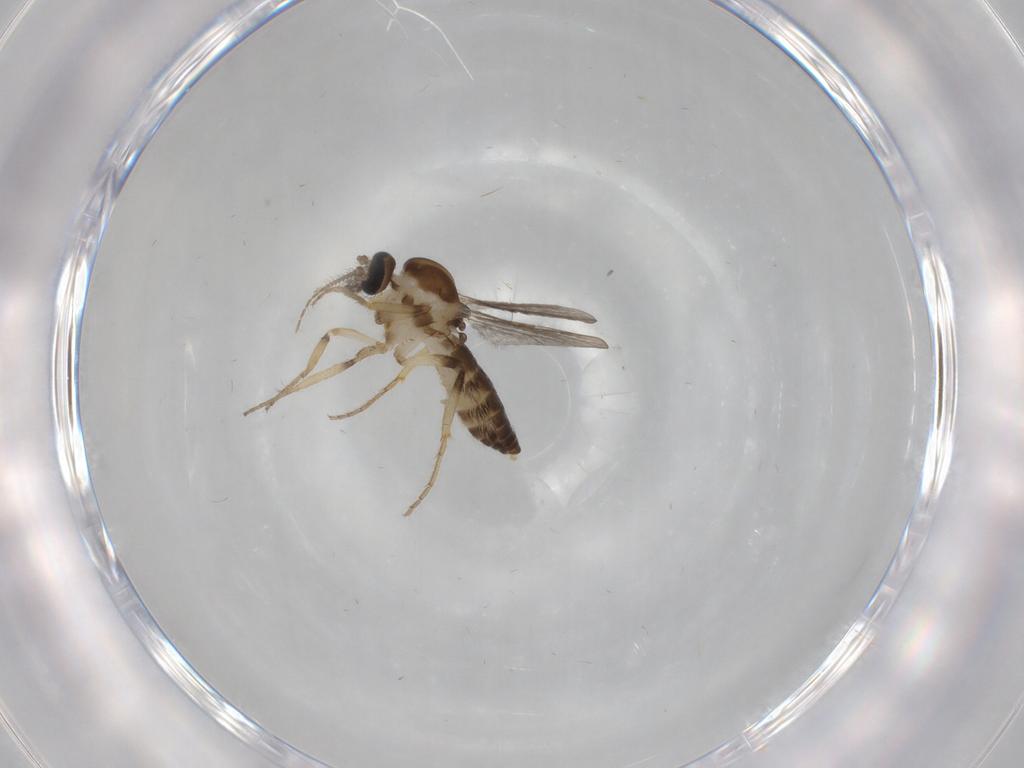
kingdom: Animalia
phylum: Arthropoda
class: Insecta
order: Diptera
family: Ceratopogonidae
